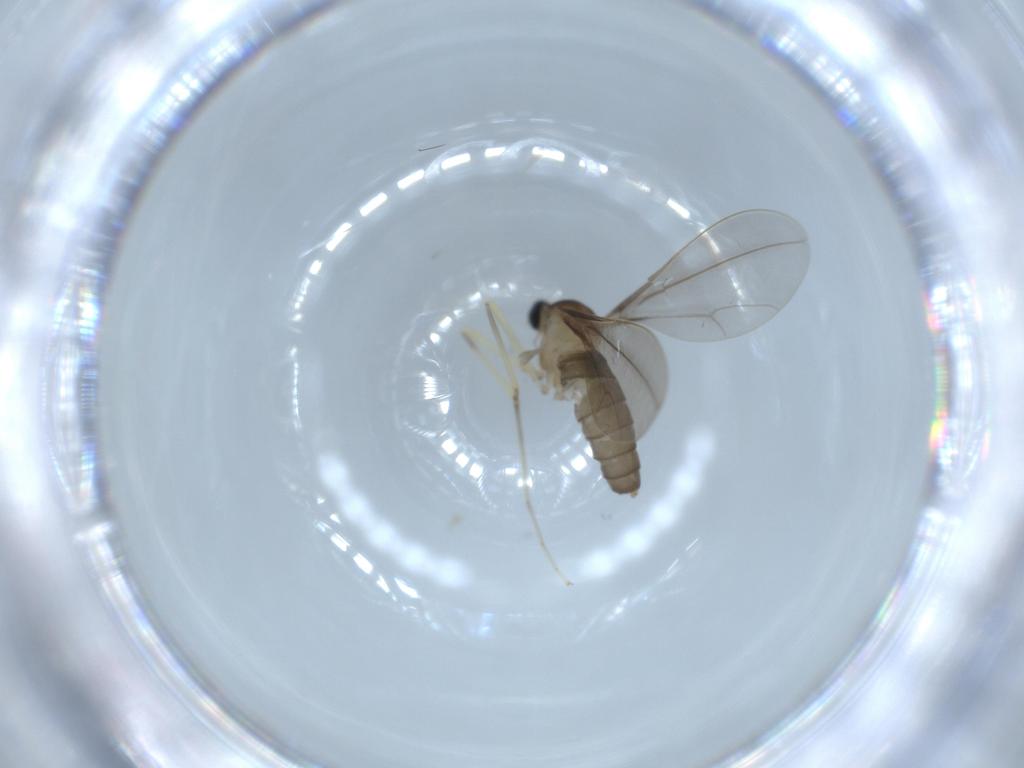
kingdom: Animalia
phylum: Arthropoda
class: Insecta
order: Diptera
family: Cecidomyiidae
